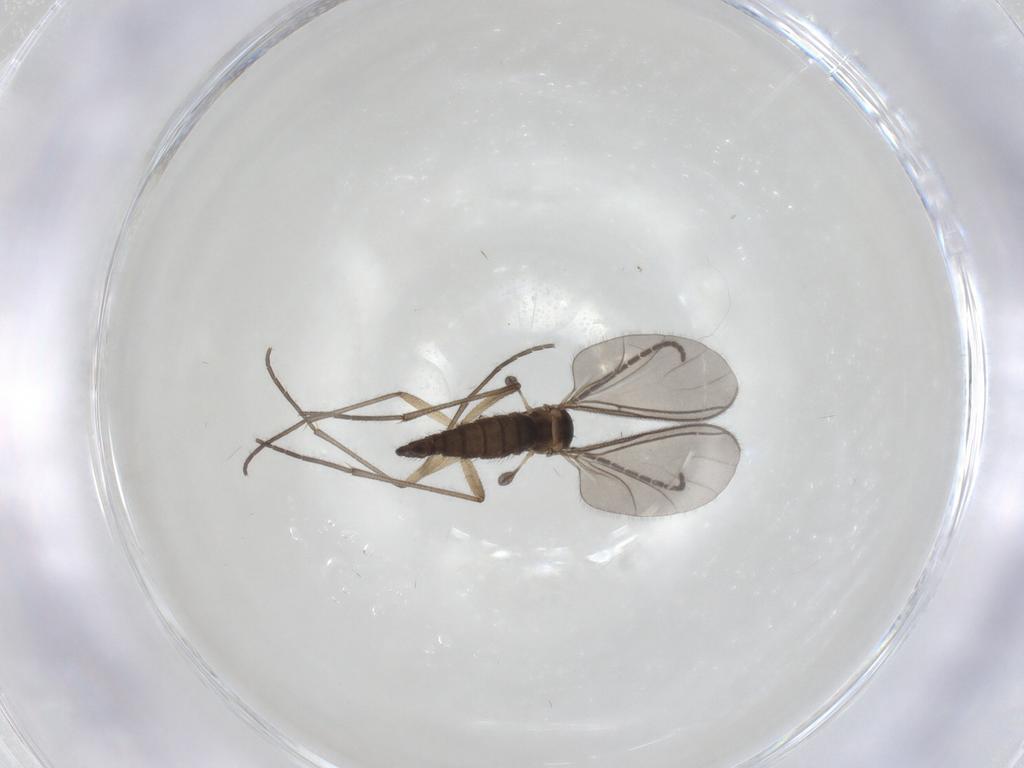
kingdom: Animalia
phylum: Arthropoda
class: Insecta
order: Diptera
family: Sciaridae
